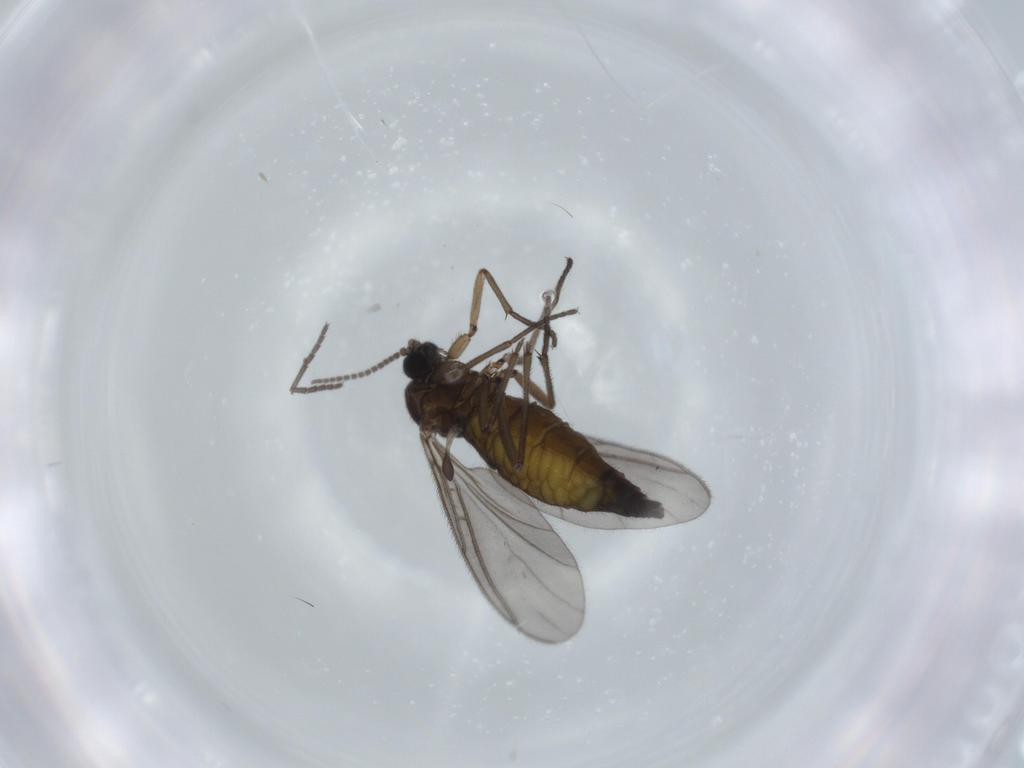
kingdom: Animalia
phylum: Arthropoda
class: Insecta
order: Diptera
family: Sciaridae
